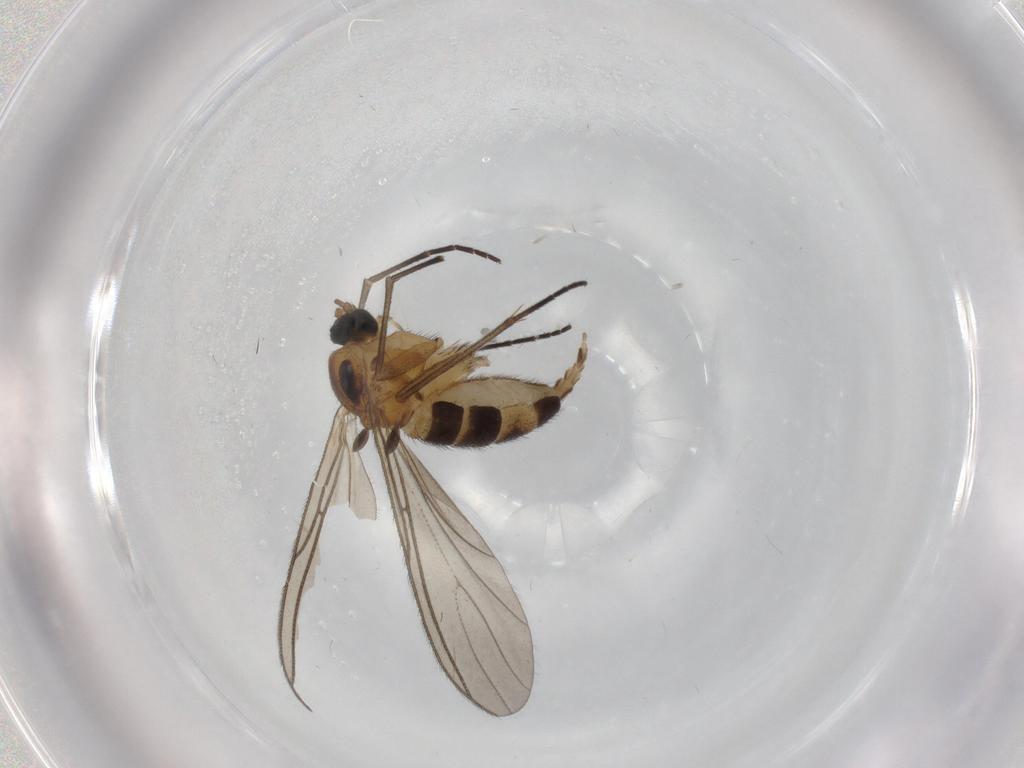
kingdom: Animalia
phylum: Arthropoda
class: Insecta
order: Diptera
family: Sciaridae
